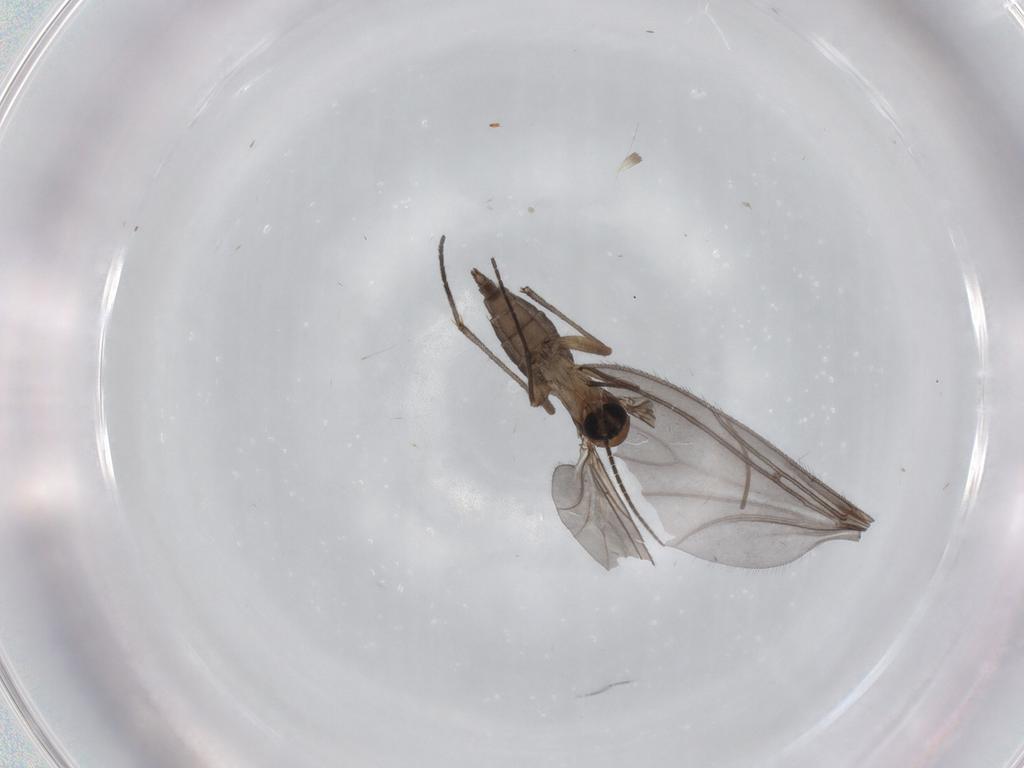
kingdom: Animalia
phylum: Arthropoda
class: Insecta
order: Diptera
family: Sciaridae
